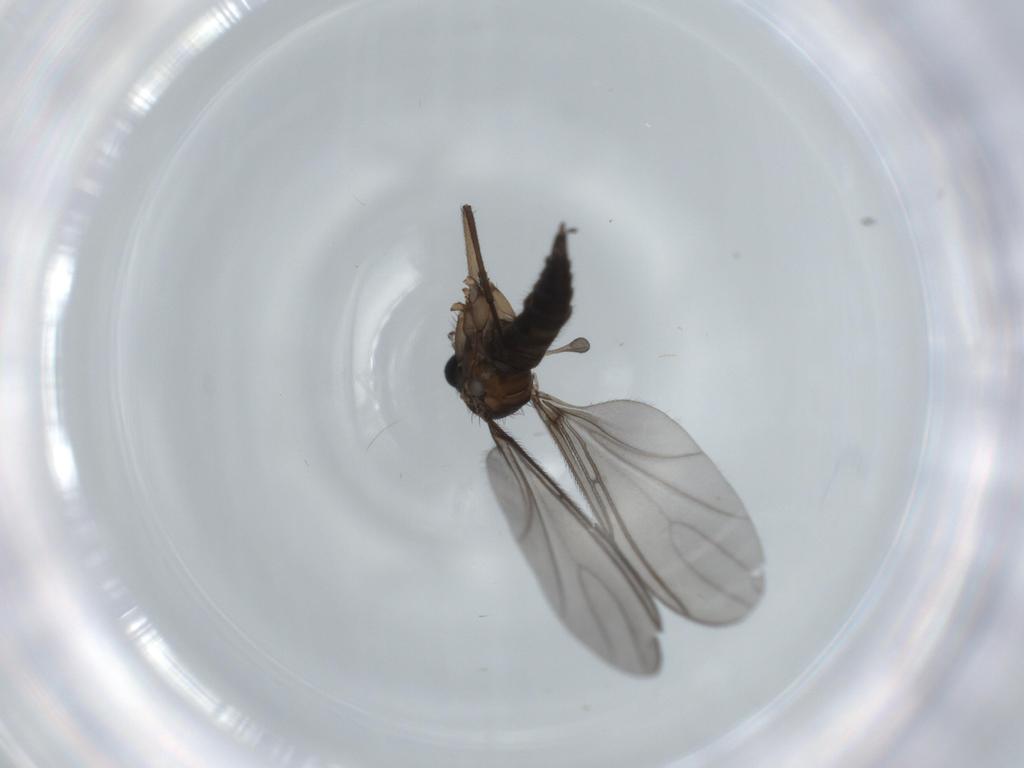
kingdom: Animalia
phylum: Arthropoda
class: Insecta
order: Diptera
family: Sciaridae
